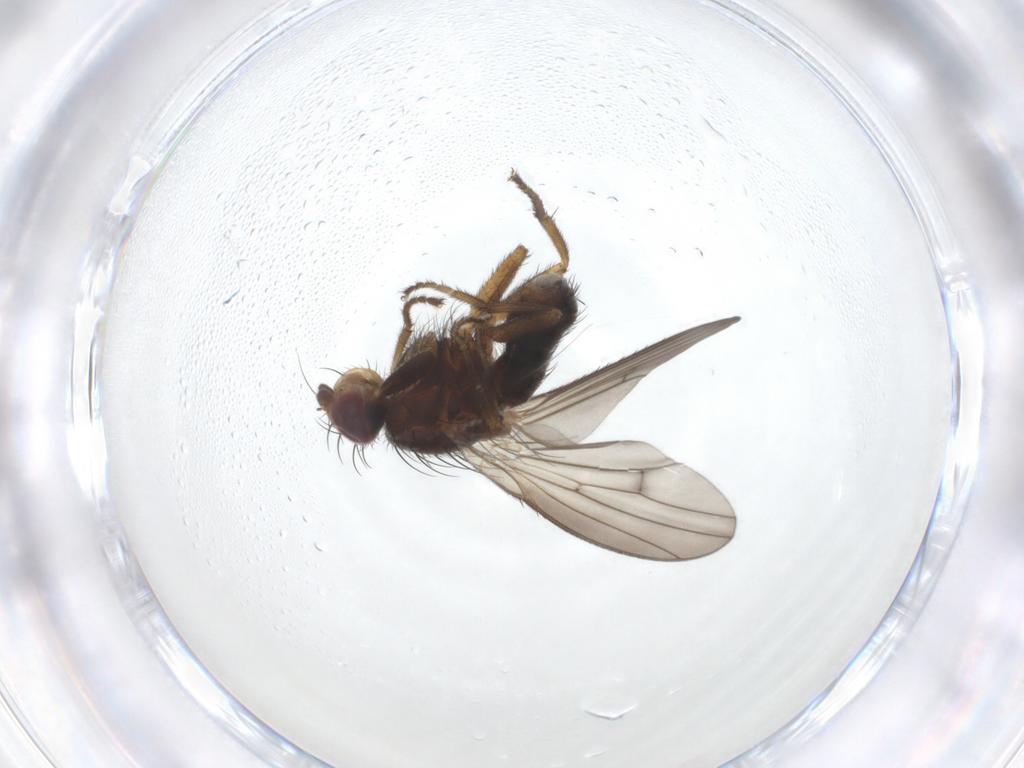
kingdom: Animalia
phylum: Arthropoda
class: Insecta
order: Diptera
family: Heleomyzidae
